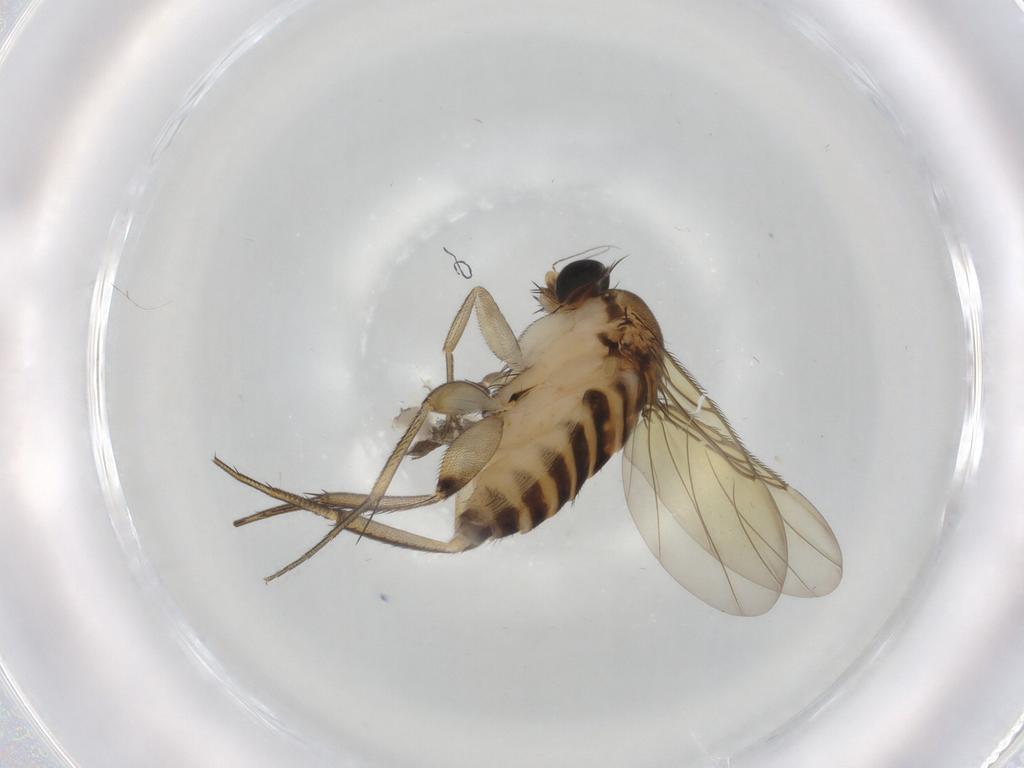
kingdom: Animalia
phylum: Arthropoda
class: Insecta
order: Diptera
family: Phoridae
